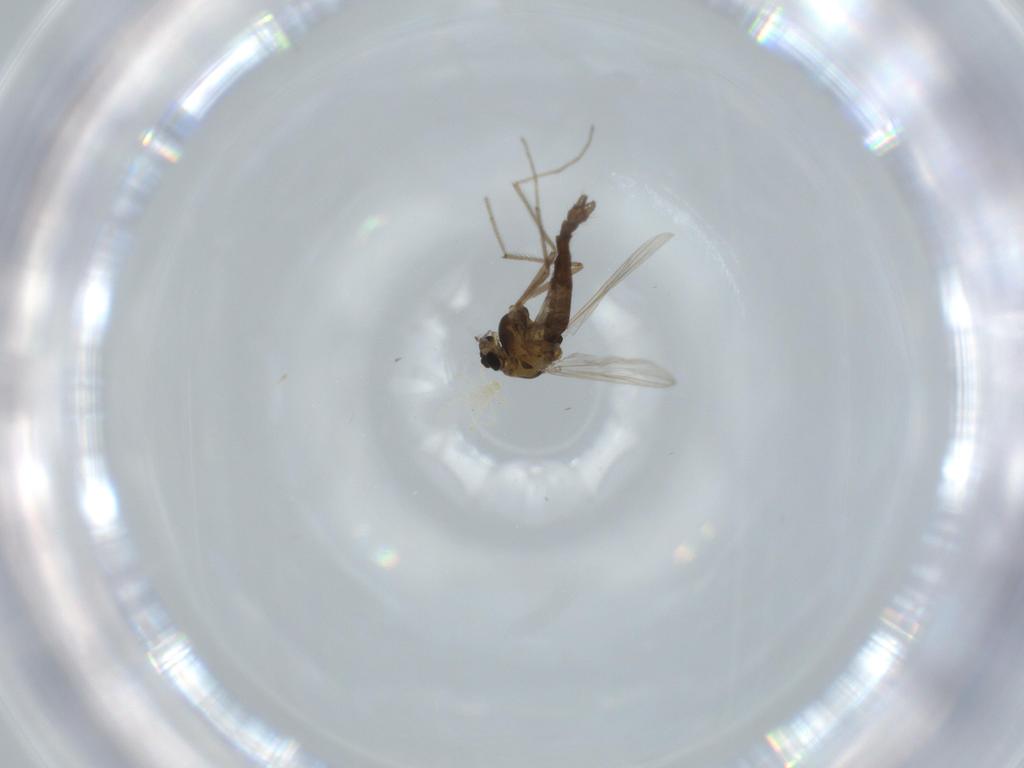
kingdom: Animalia
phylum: Arthropoda
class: Insecta
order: Diptera
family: Chironomidae
